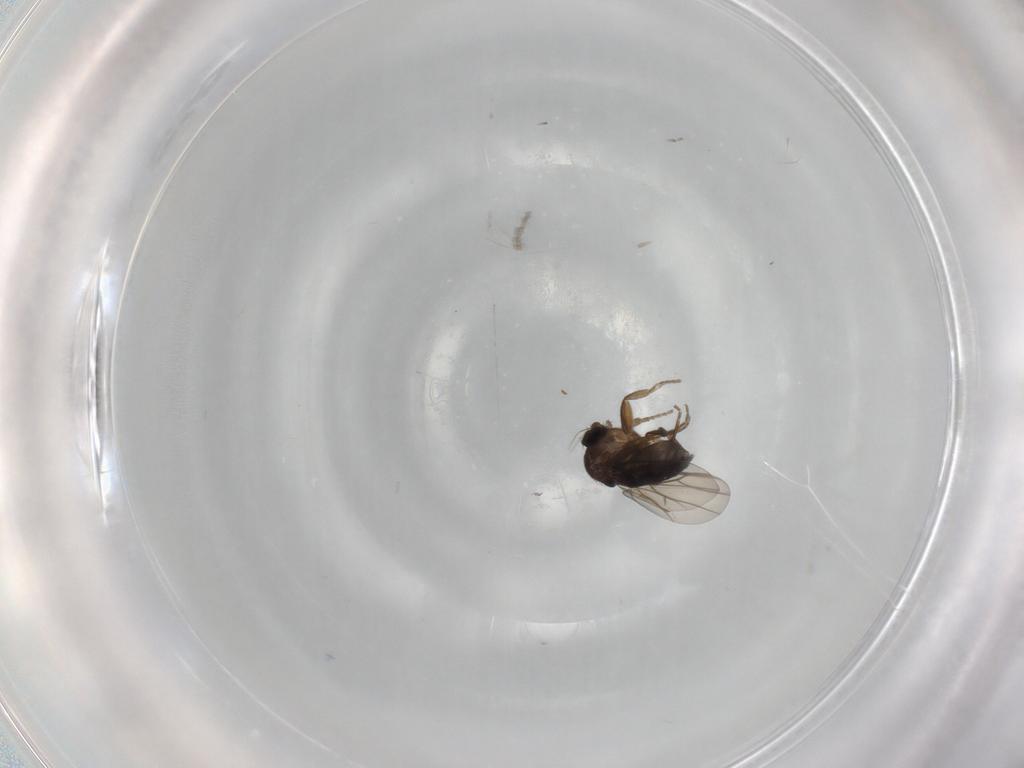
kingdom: Animalia
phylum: Arthropoda
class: Insecta
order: Diptera
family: Phoridae
